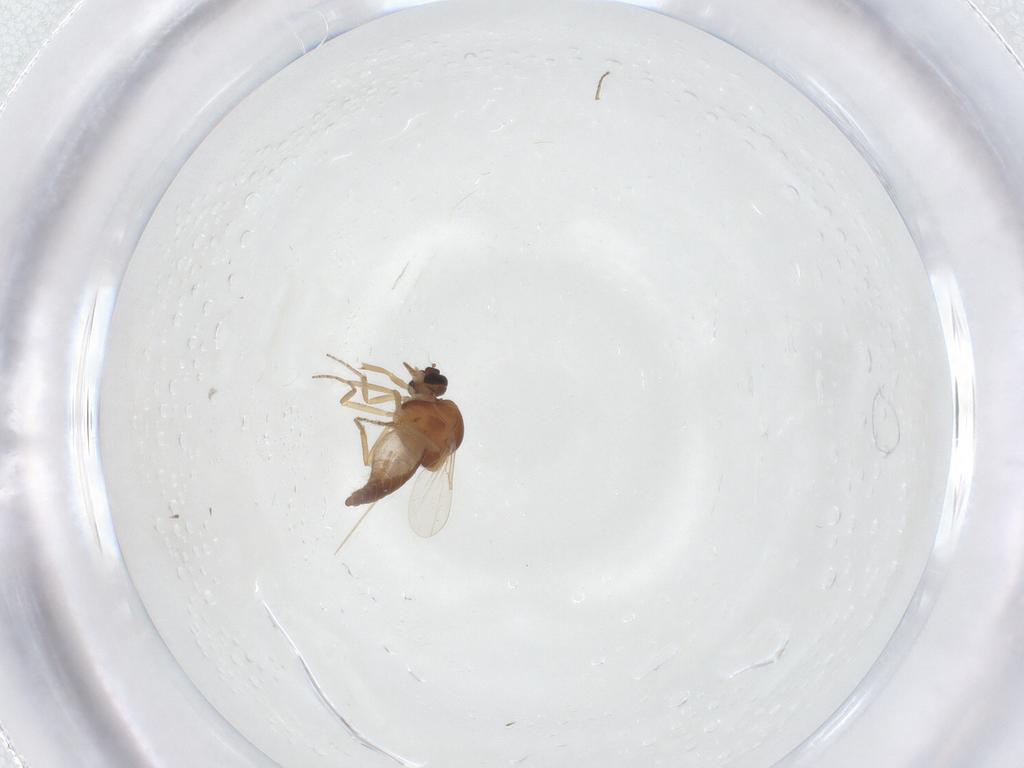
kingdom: Animalia
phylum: Arthropoda
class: Insecta
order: Diptera
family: Ceratopogonidae
